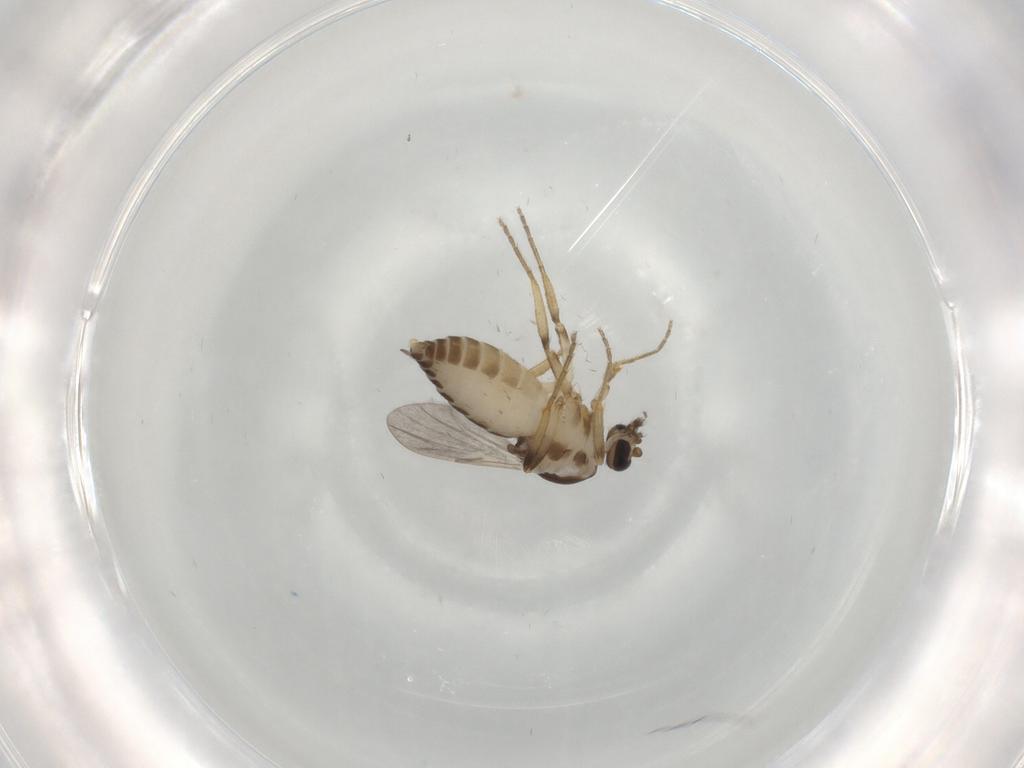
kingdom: Animalia
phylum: Arthropoda
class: Insecta
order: Diptera
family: Ceratopogonidae
